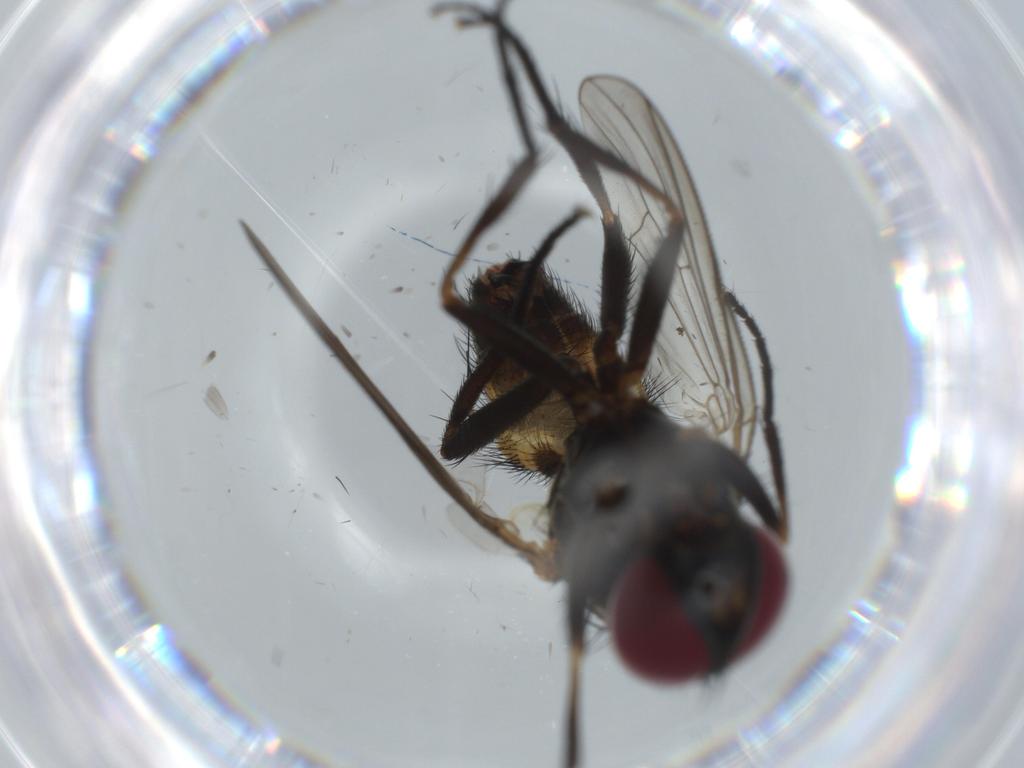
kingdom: Animalia
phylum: Arthropoda
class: Insecta
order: Diptera
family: Fannia
